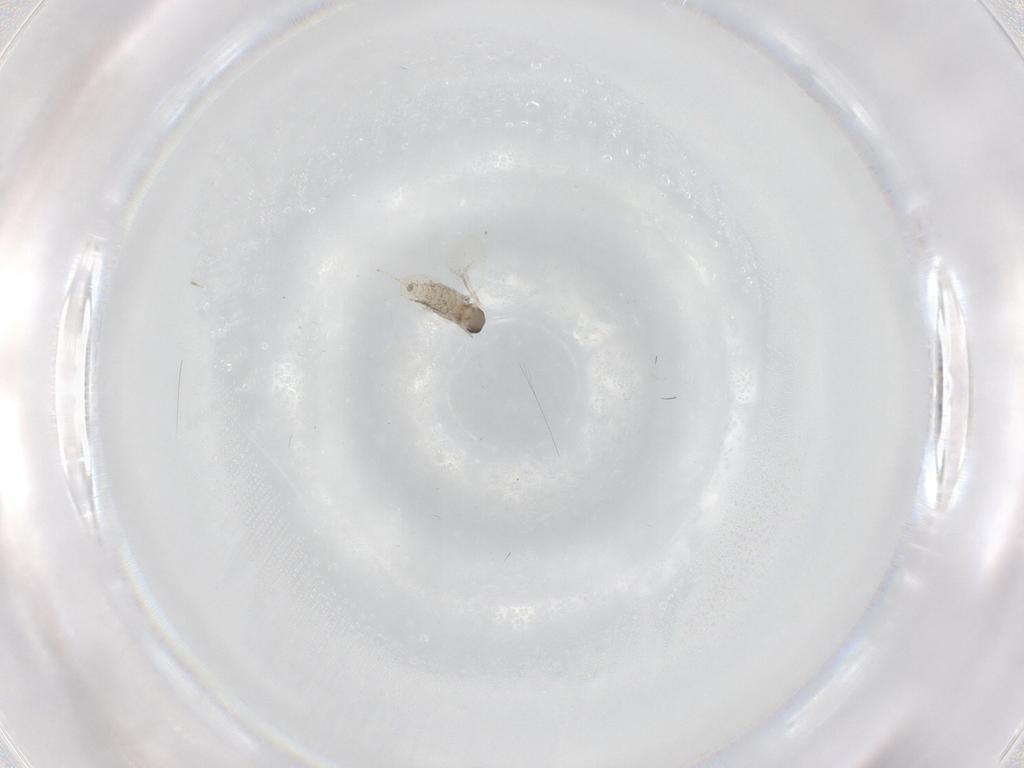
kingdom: Animalia
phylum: Arthropoda
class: Insecta
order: Diptera
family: Cecidomyiidae
